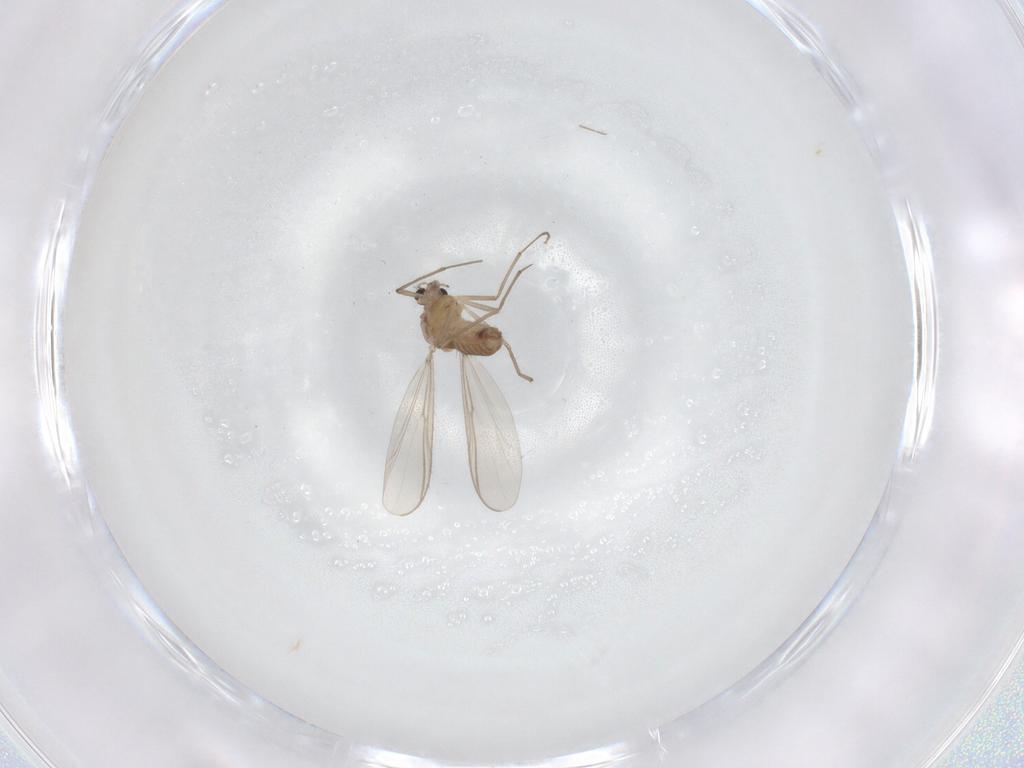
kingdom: Animalia
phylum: Arthropoda
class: Insecta
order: Diptera
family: Chironomidae
